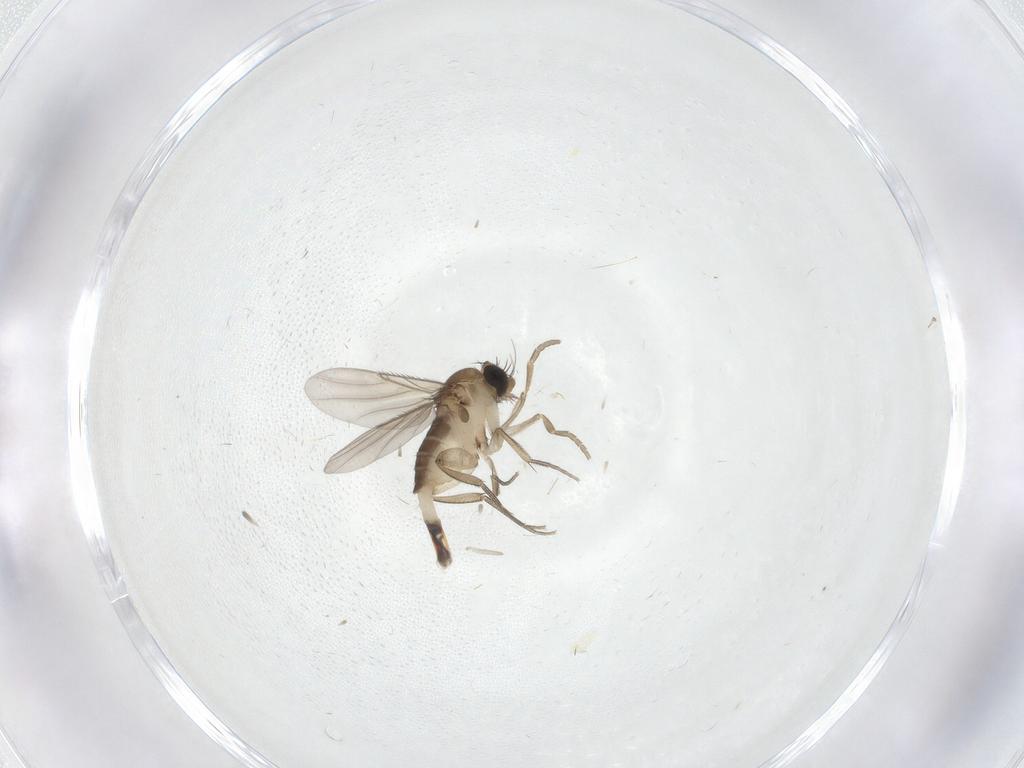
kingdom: Animalia
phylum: Arthropoda
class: Insecta
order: Diptera
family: Phoridae
